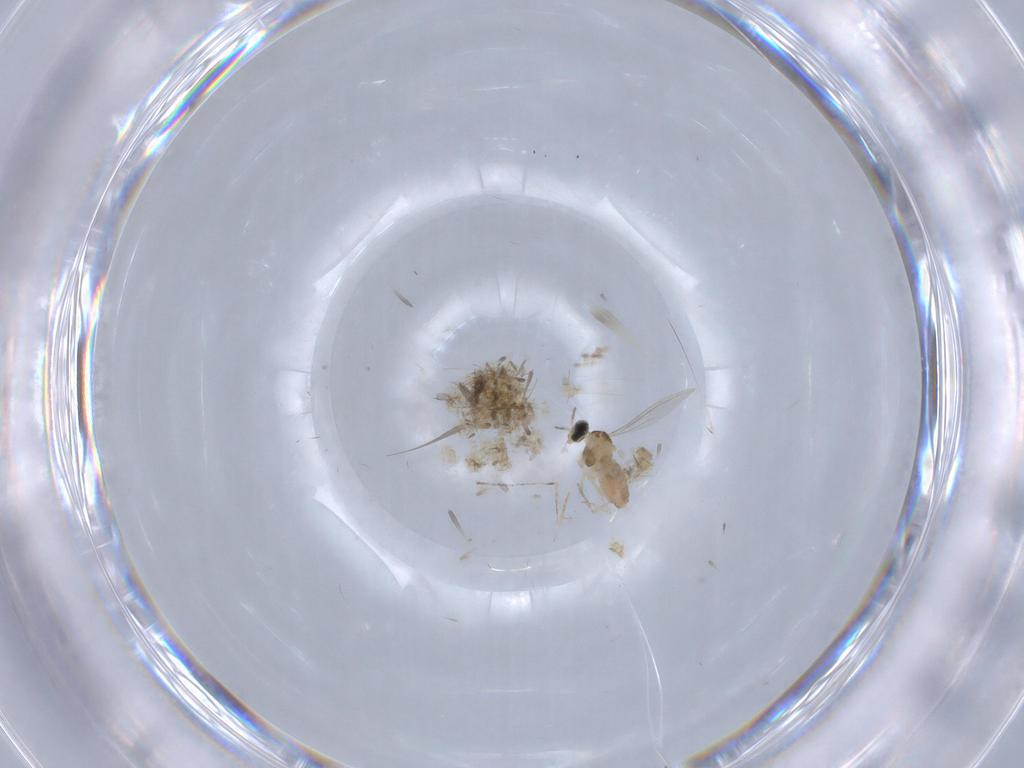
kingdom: Animalia
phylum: Arthropoda
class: Insecta
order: Diptera
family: Cecidomyiidae
